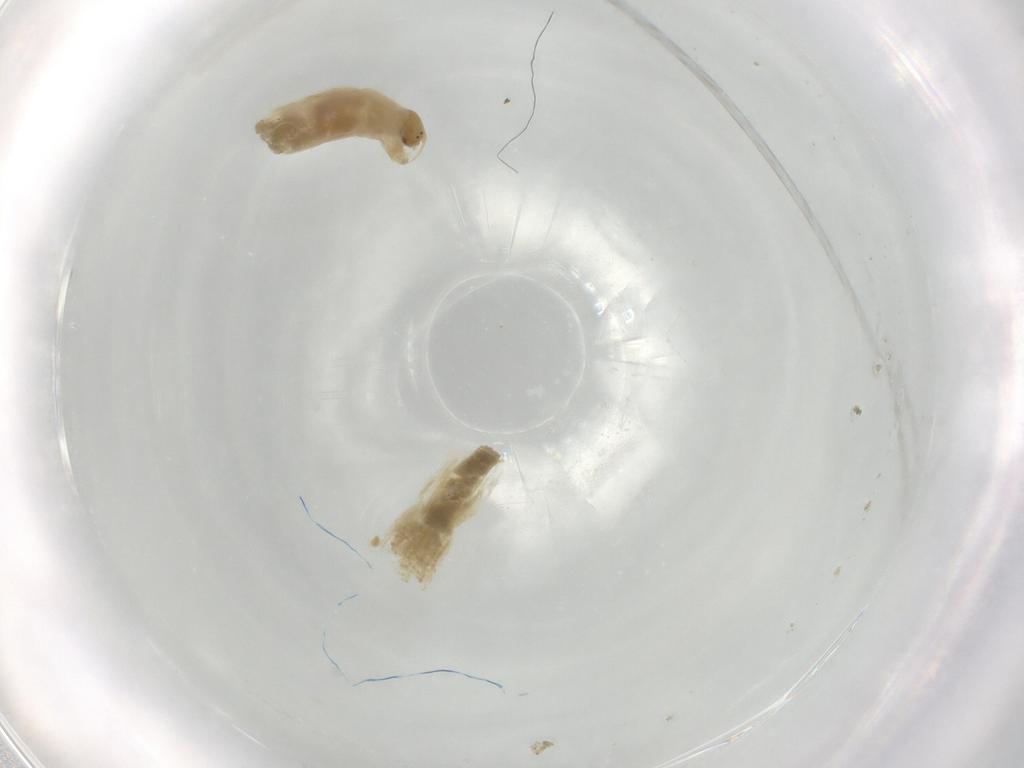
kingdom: Animalia
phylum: Arthropoda
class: Insecta
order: Diptera
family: Chironomidae
